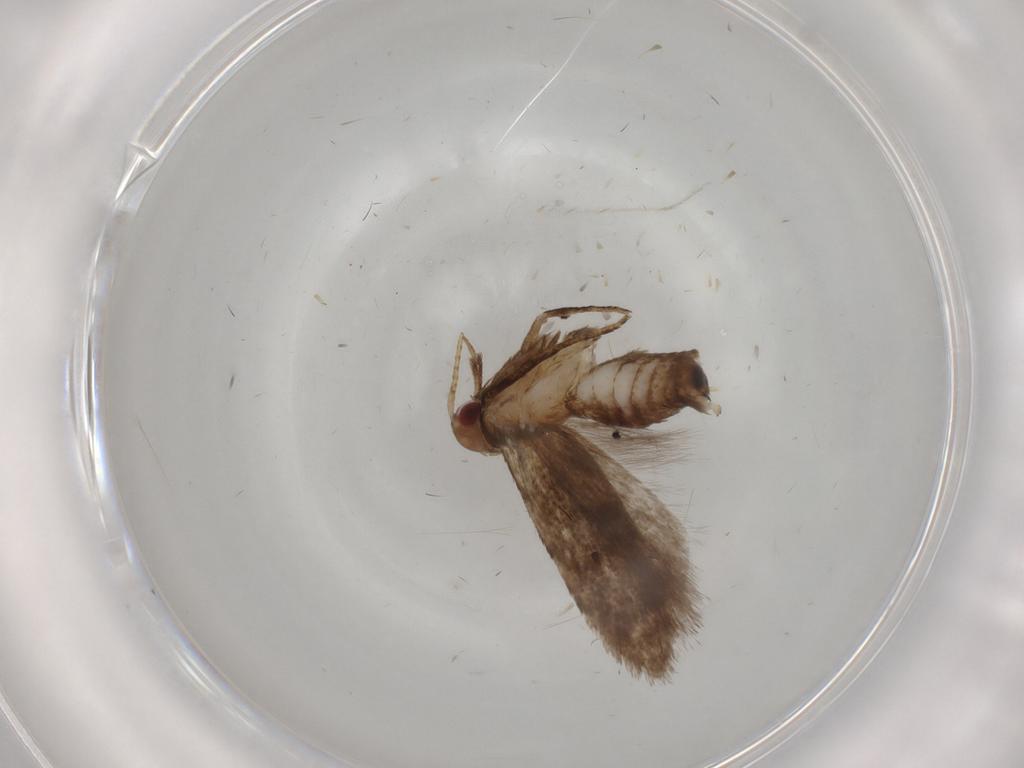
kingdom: Animalia
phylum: Arthropoda
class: Insecta
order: Lepidoptera
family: Gelechiidae
